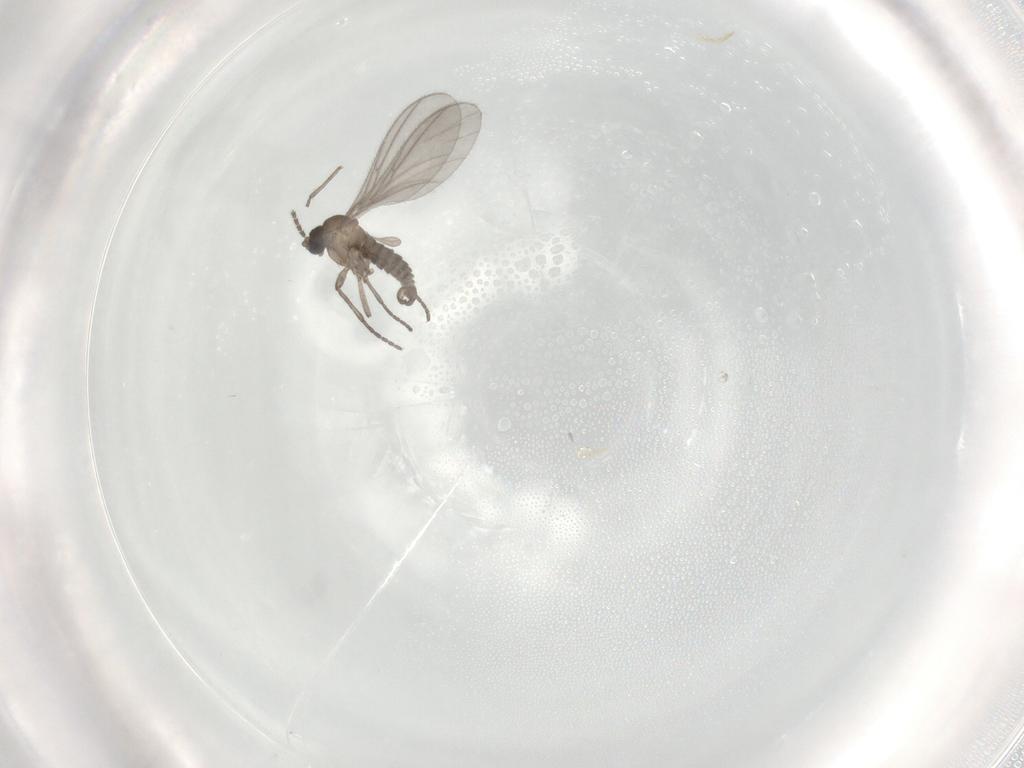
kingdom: Animalia
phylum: Arthropoda
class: Insecta
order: Diptera
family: Sciaridae
